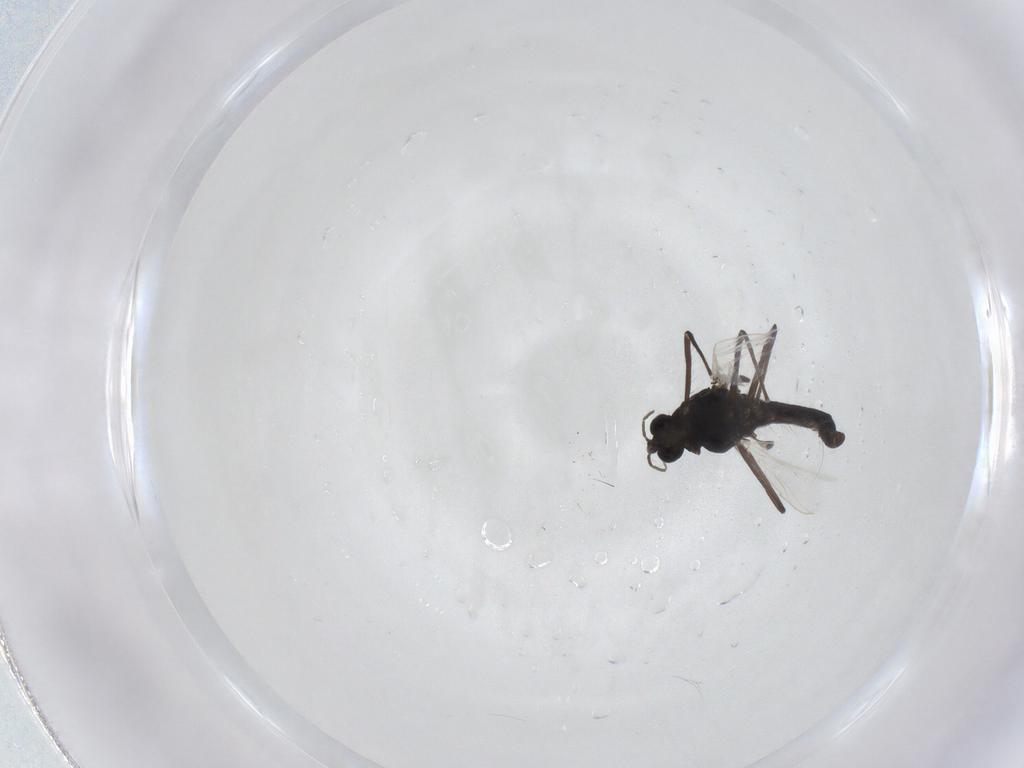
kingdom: Animalia
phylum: Arthropoda
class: Insecta
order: Diptera
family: Chironomidae
